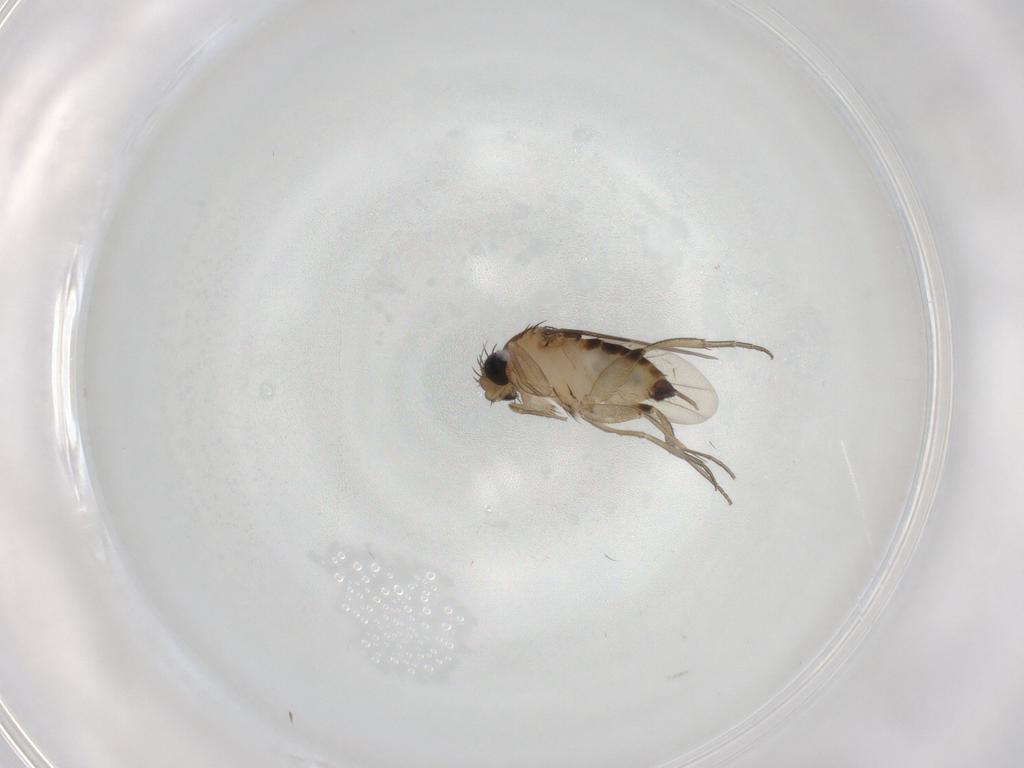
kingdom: Animalia
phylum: Arthropoda
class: Insecta
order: Diptera
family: Phoridae
